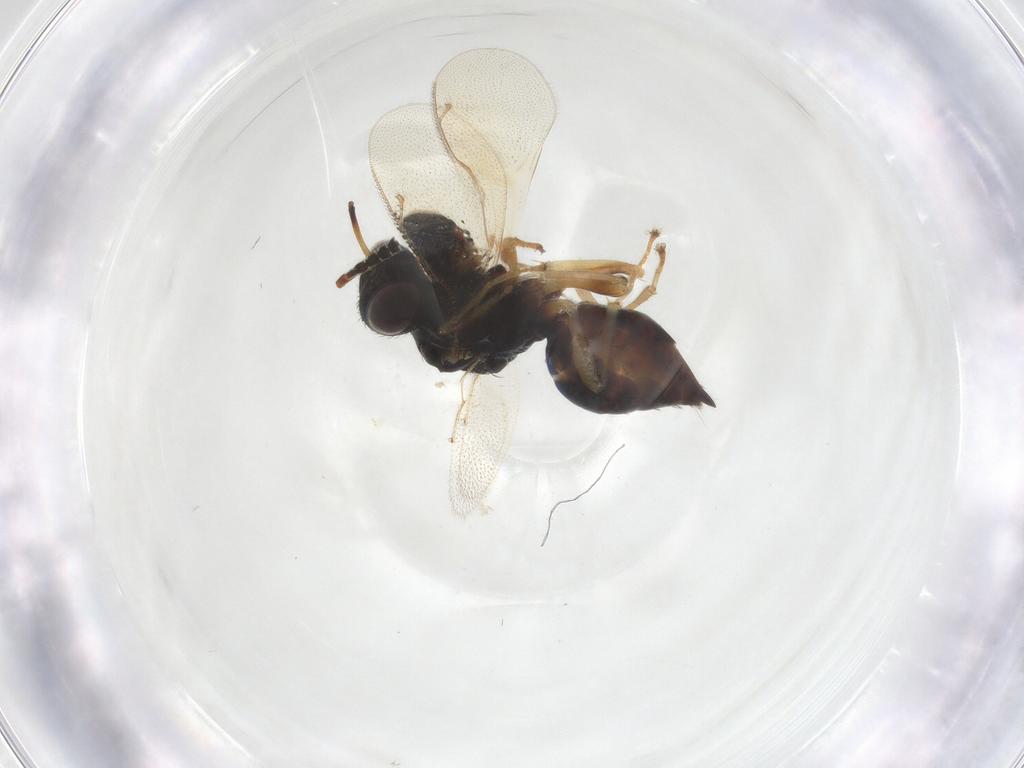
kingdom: Animalia
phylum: Arthropoda
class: Insecta
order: Hymenoptera
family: Pteromalidae
